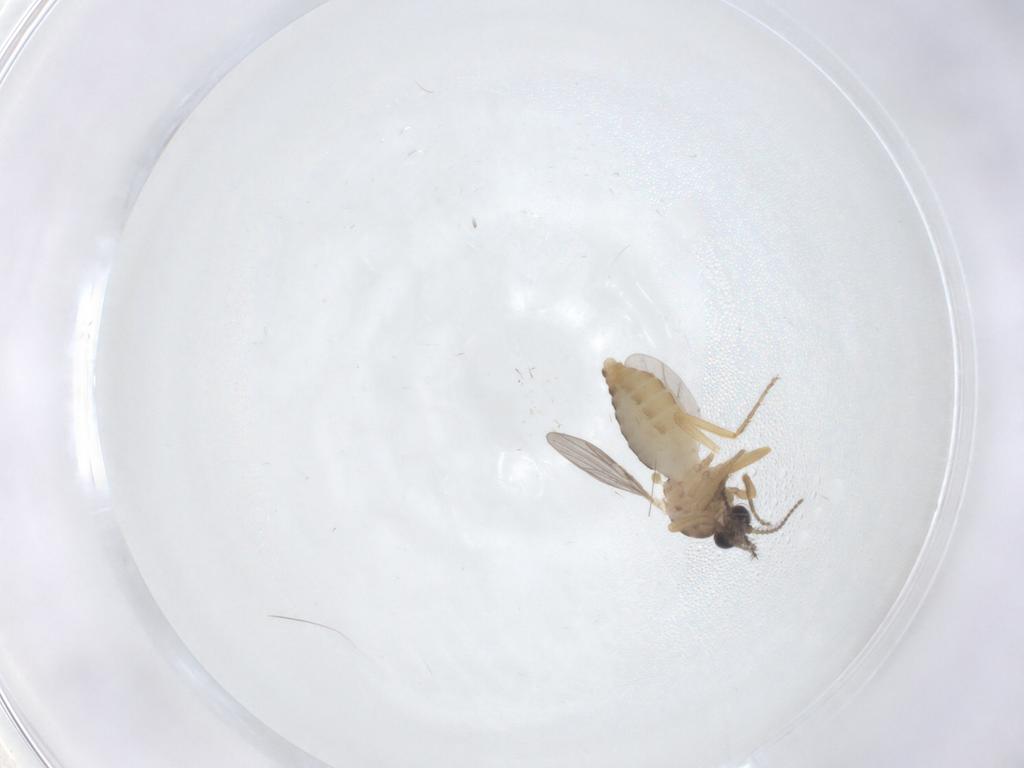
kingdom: Animalia
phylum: Arthropoda
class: Insecta
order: Diptera
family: Ceratopogonidae
